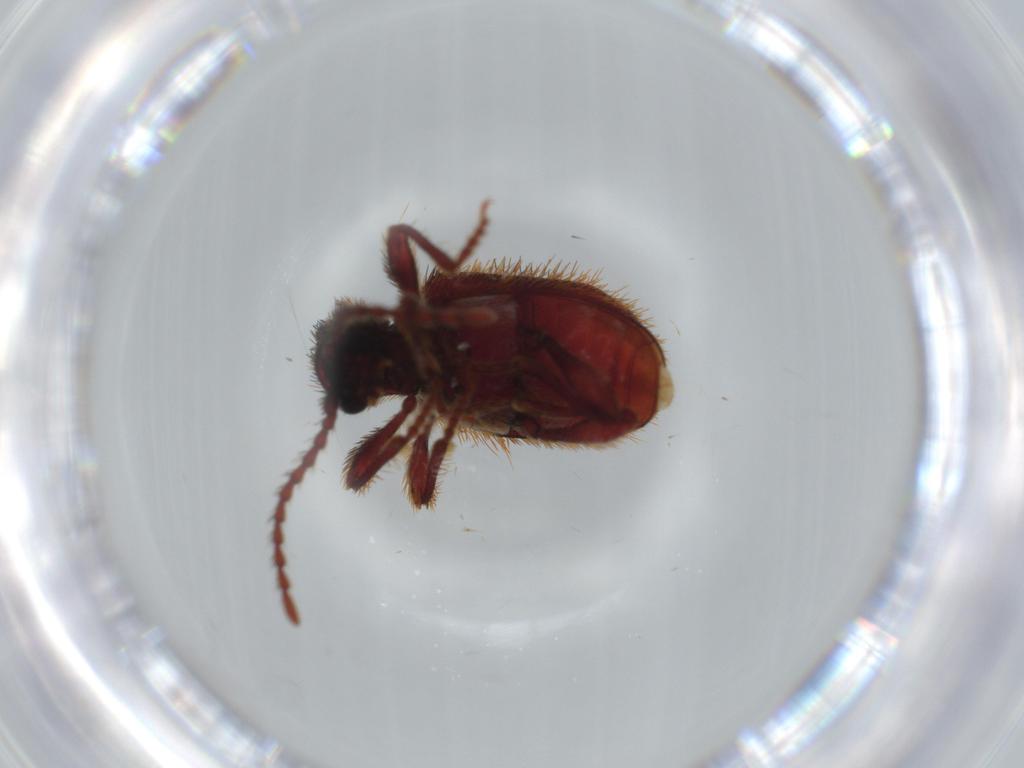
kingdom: Animalia
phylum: Arthropoda
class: Insecta
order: Coleoptera
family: Ptinidae
